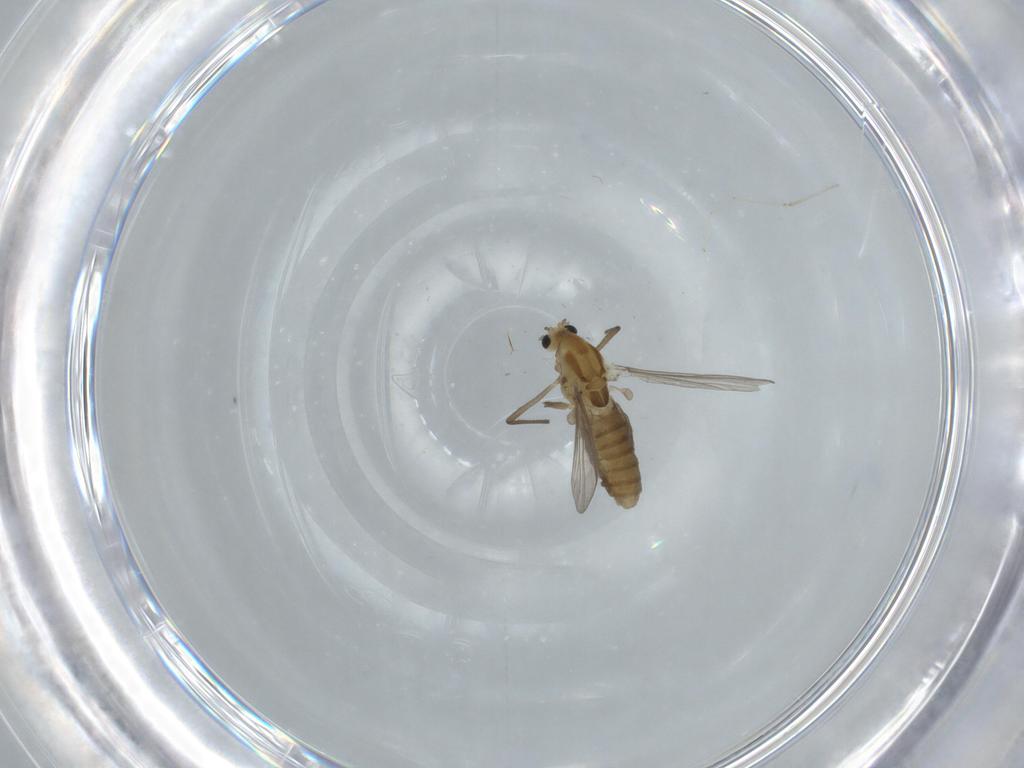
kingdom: Animalia
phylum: Arthropoda
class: Insecta
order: Diptera
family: Chironomidae
